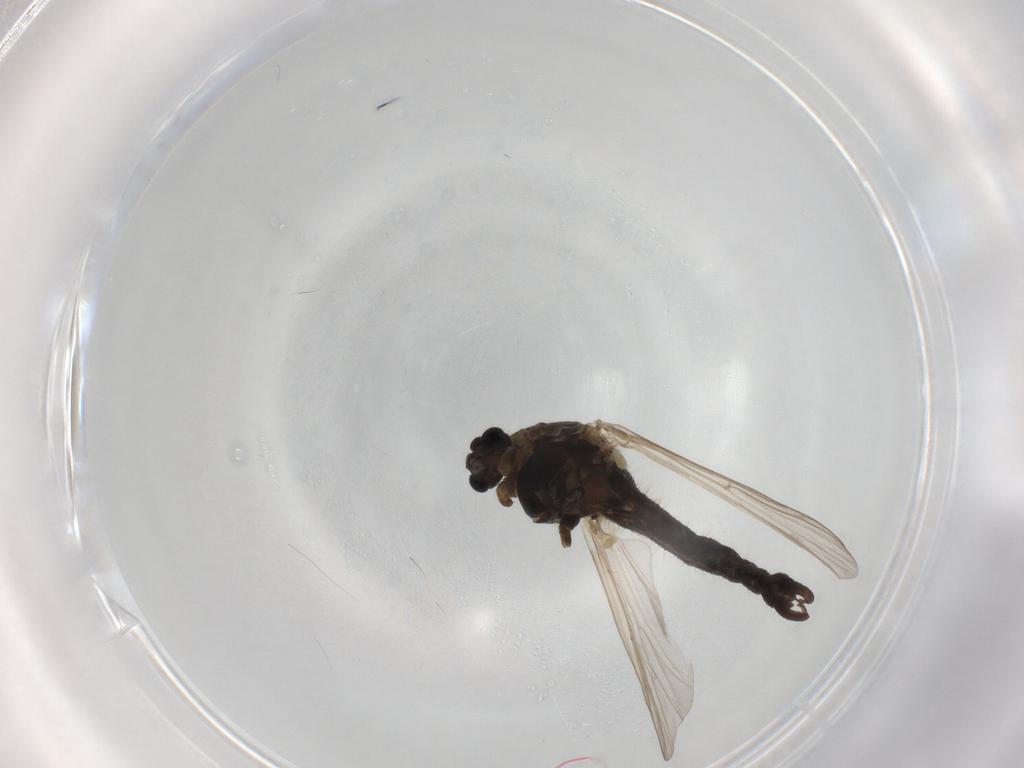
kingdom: Animalia
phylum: Arthropoda
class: Insecta
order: Diptera
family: Chironomidae
